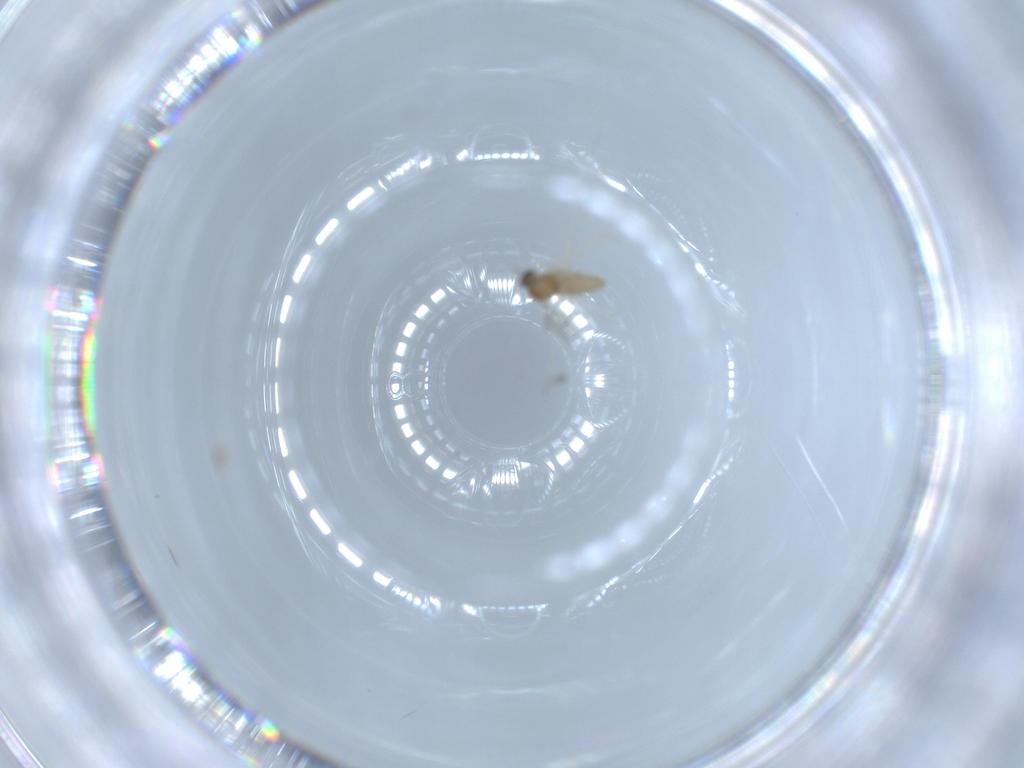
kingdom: Animalia
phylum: Arthropoda
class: Insecta
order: Diptera
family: Cecidomyiidae
